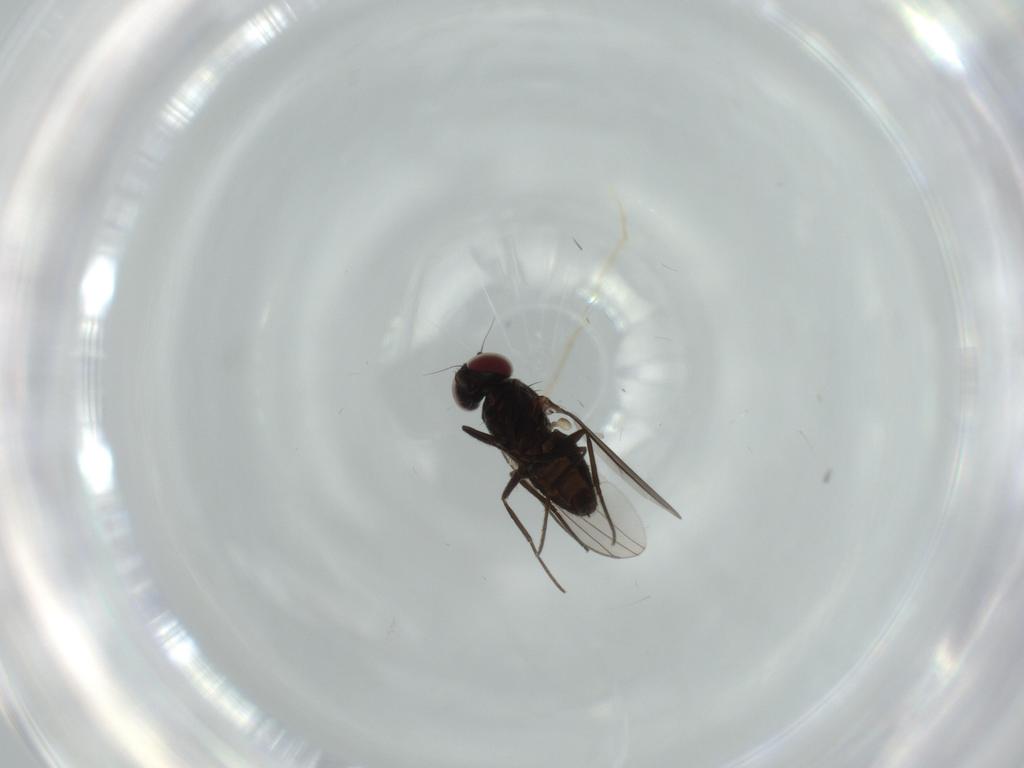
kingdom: Animalia
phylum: Arthropoda
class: Insecta
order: Diptera
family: Dolichopodidae
